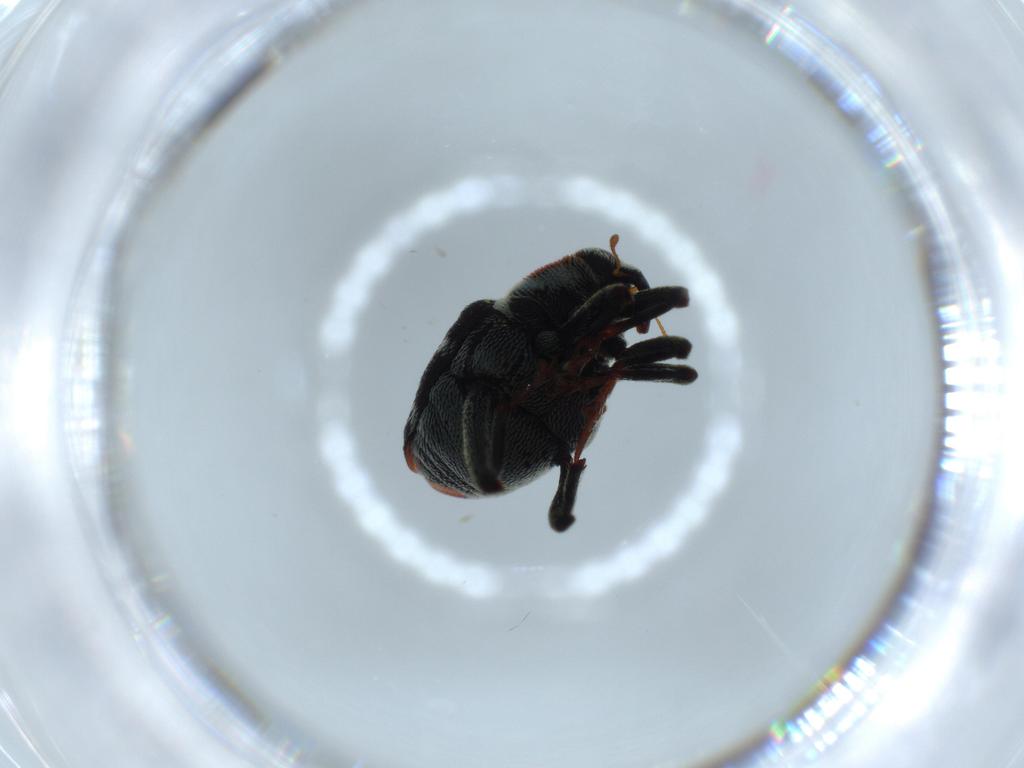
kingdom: Animalia
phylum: Arthropoda
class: Insecta
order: Coleoptera
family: Curculionidae
